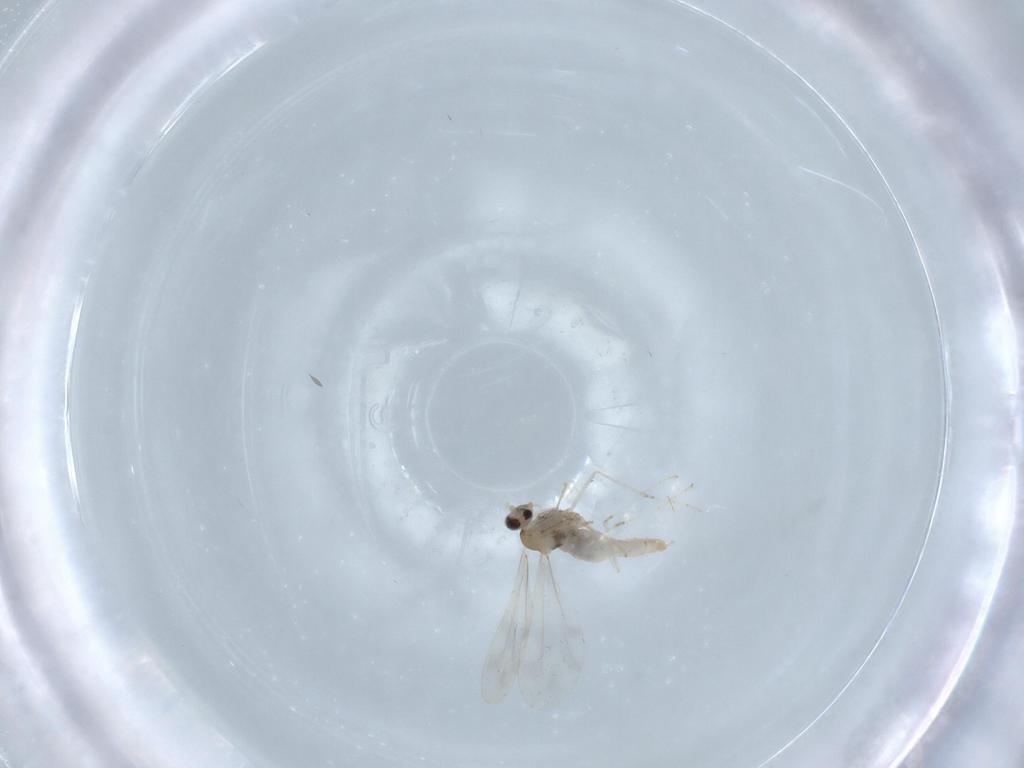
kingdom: Animalia
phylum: Arthropoda
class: Insecta
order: Diptera
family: Cecidomyiidae
